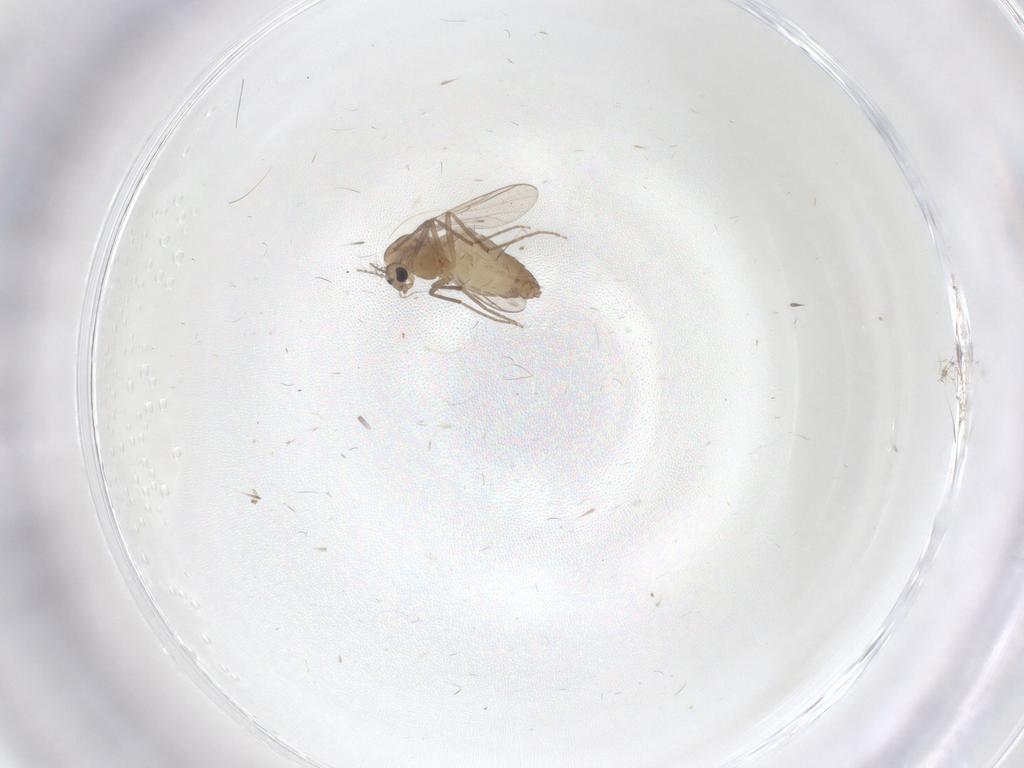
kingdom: Animalia
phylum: Arthropoda
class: Insecta
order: Diptera
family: Chironomidae
